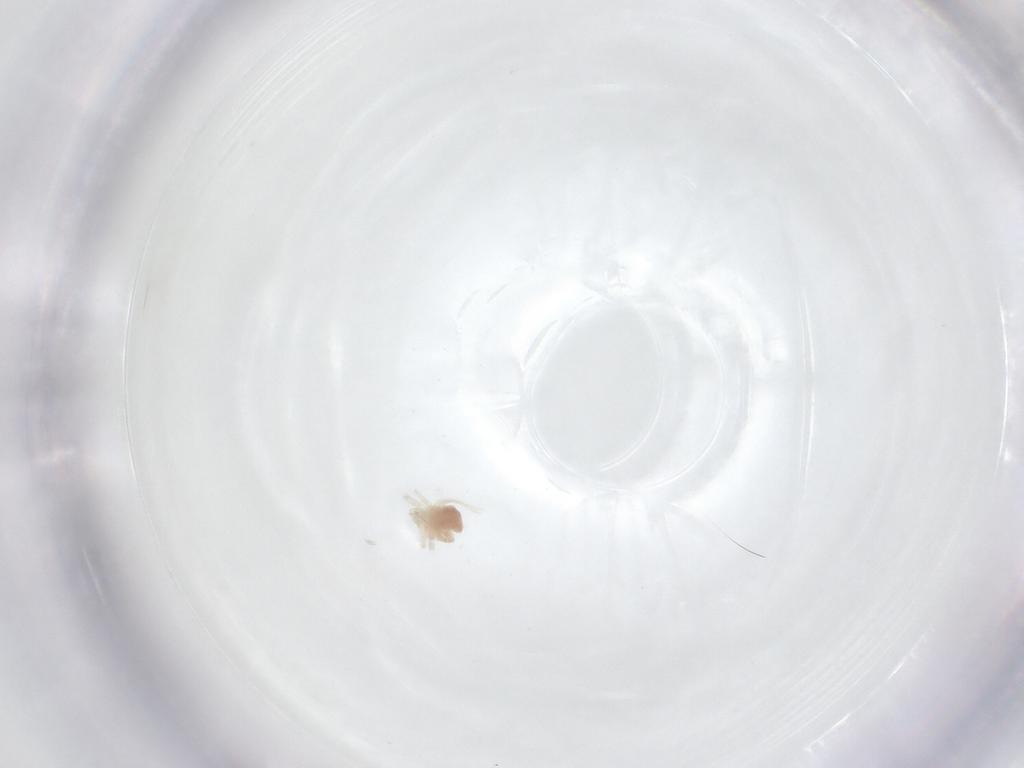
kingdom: Animalia
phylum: Arthropoda
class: Arachnida
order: Trombidiformes
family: Anystidae
